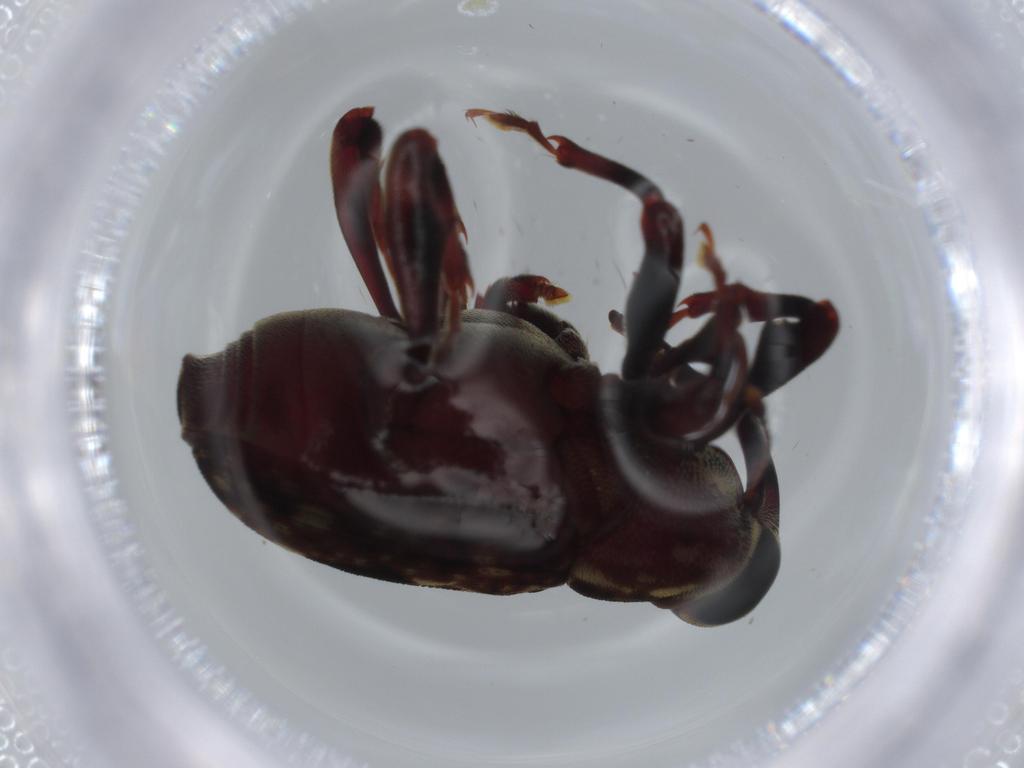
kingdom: Animalia
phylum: Arthropoda
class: Insecta
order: Coleoptera
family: Curculionidae
